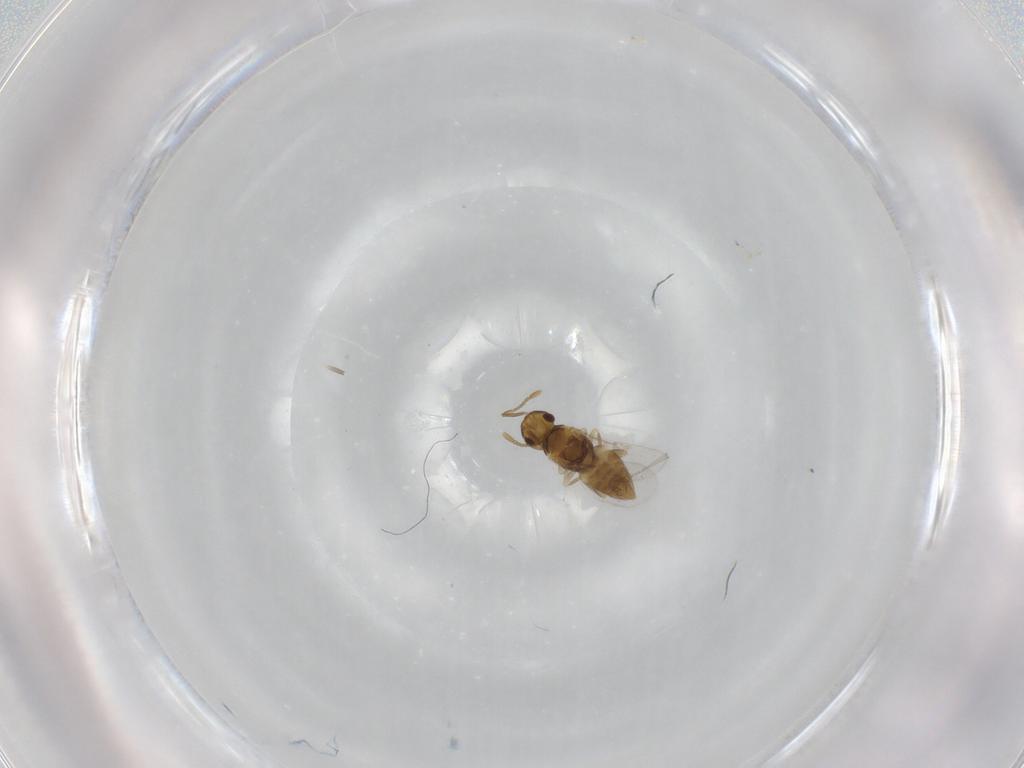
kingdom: Animalia
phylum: Arthropoda
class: Insecta
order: Hymenoptera
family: Encyrtidae
